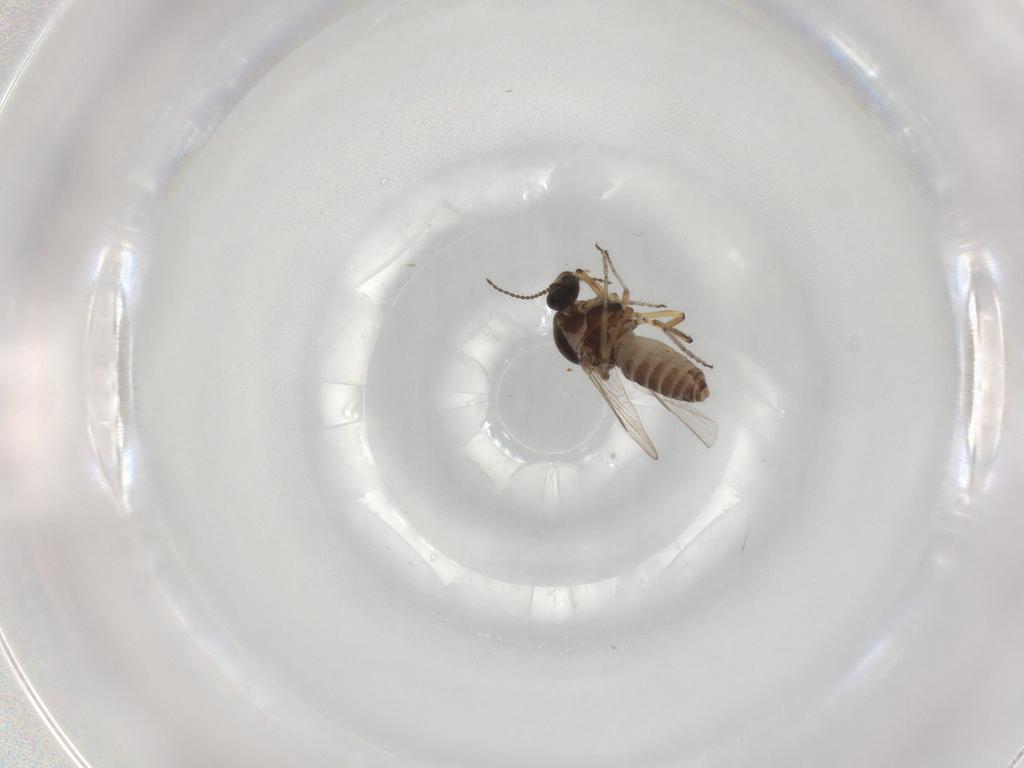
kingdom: Animalia
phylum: Arthropoda
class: Insecta
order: Diptera
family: Ceratopogonidae
